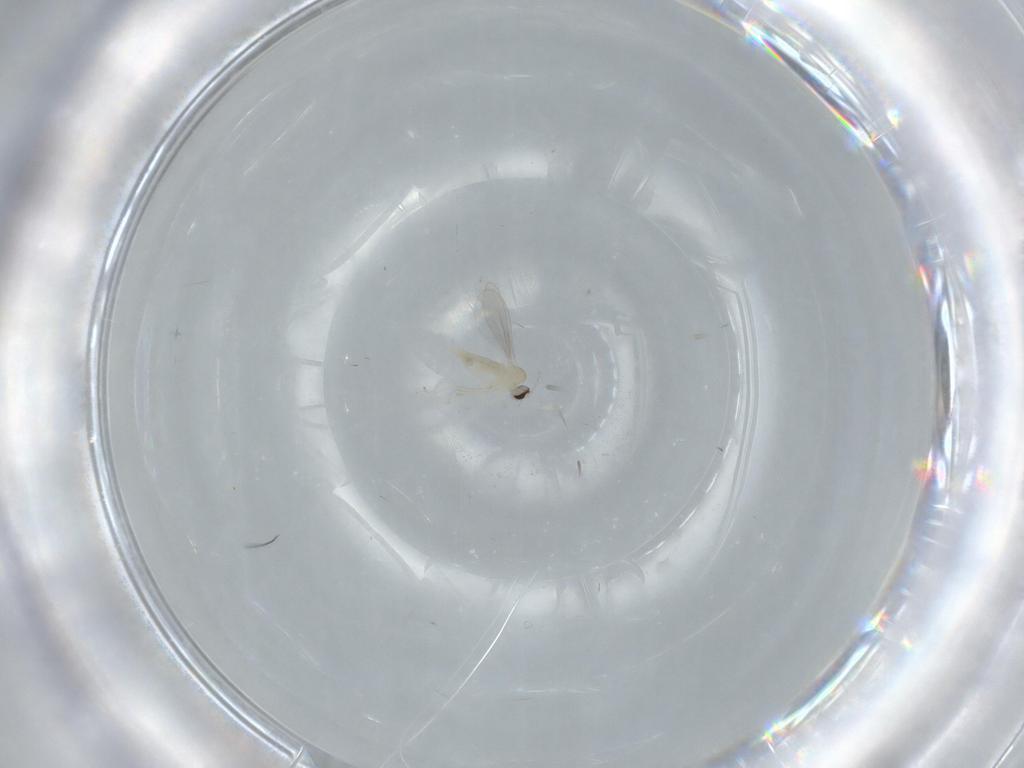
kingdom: Animalia
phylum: Arthropoda
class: Insecta
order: Diptera
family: Cecidomyiidae
